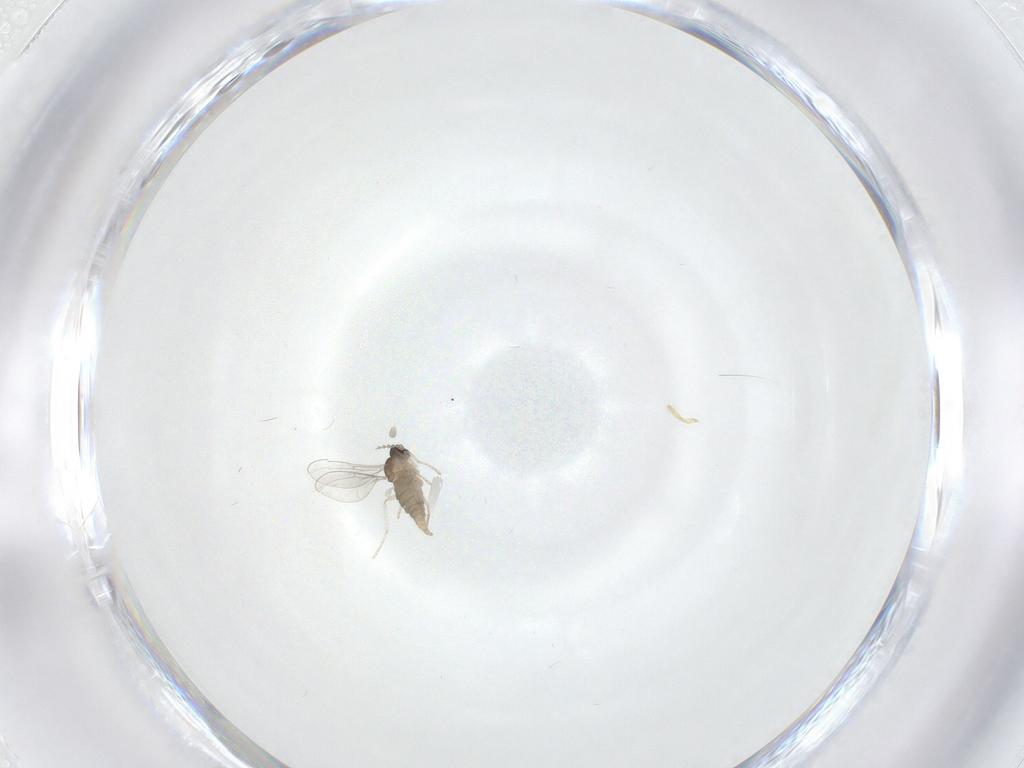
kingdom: Animalia
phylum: Arthropoda
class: Insecta
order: Diptera
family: Cecidomyiidae
